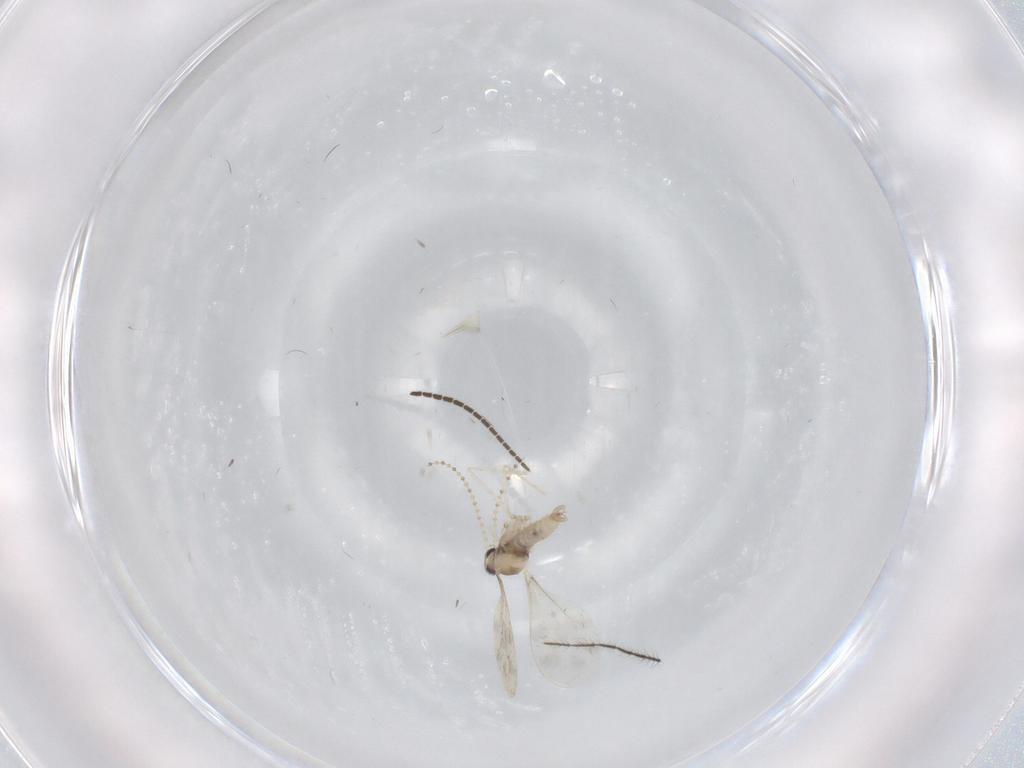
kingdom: Animalia
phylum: Arthropoda
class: Insecta
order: Diptera
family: Cecidomyiidae
